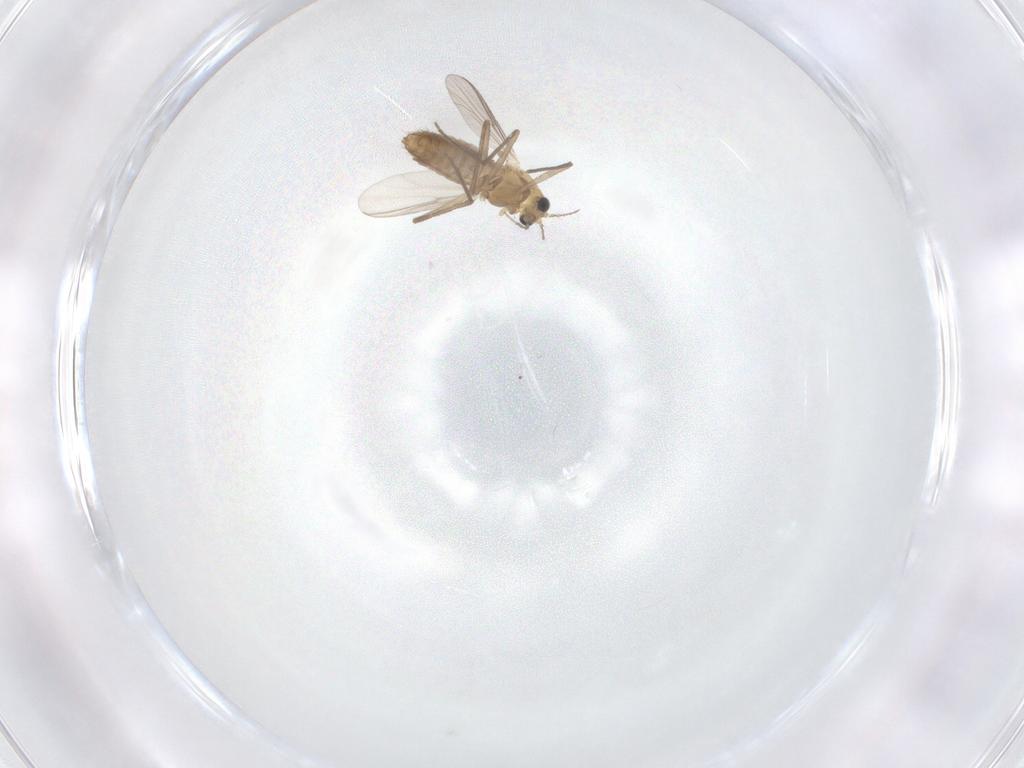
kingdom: Animalia
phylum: Arthropoda
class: Insecta
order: Diptera
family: Chironomidae
